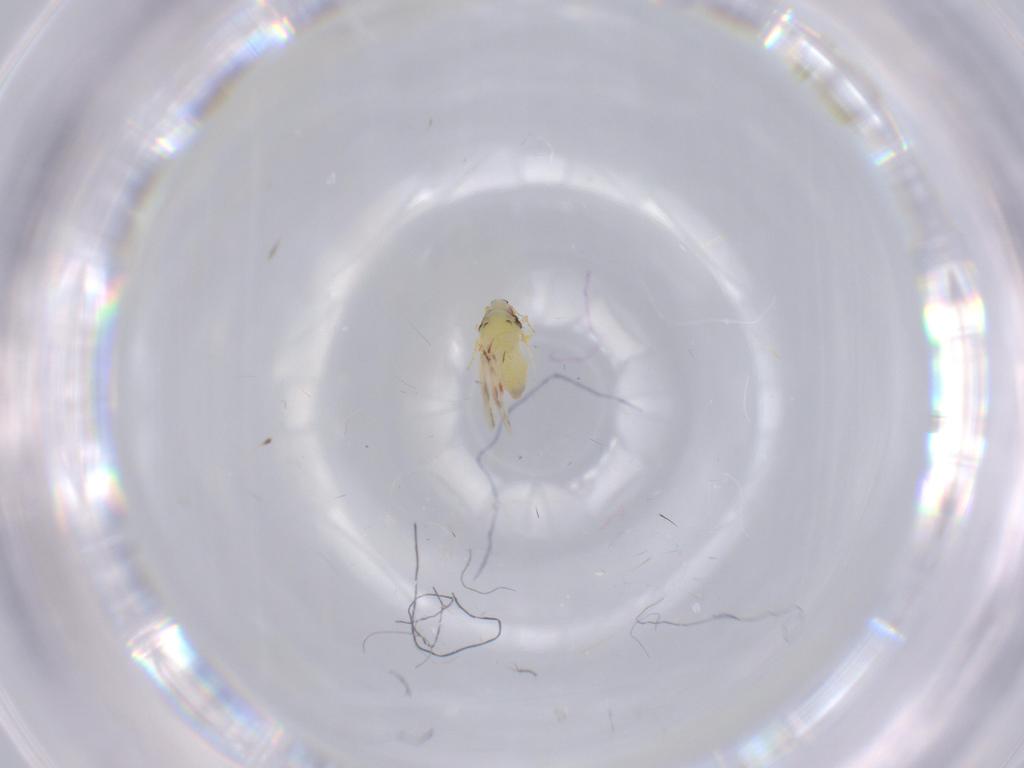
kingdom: Animalia
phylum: Arthropoda
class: Insecta
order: Hemiptera
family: Aleyrodidae
